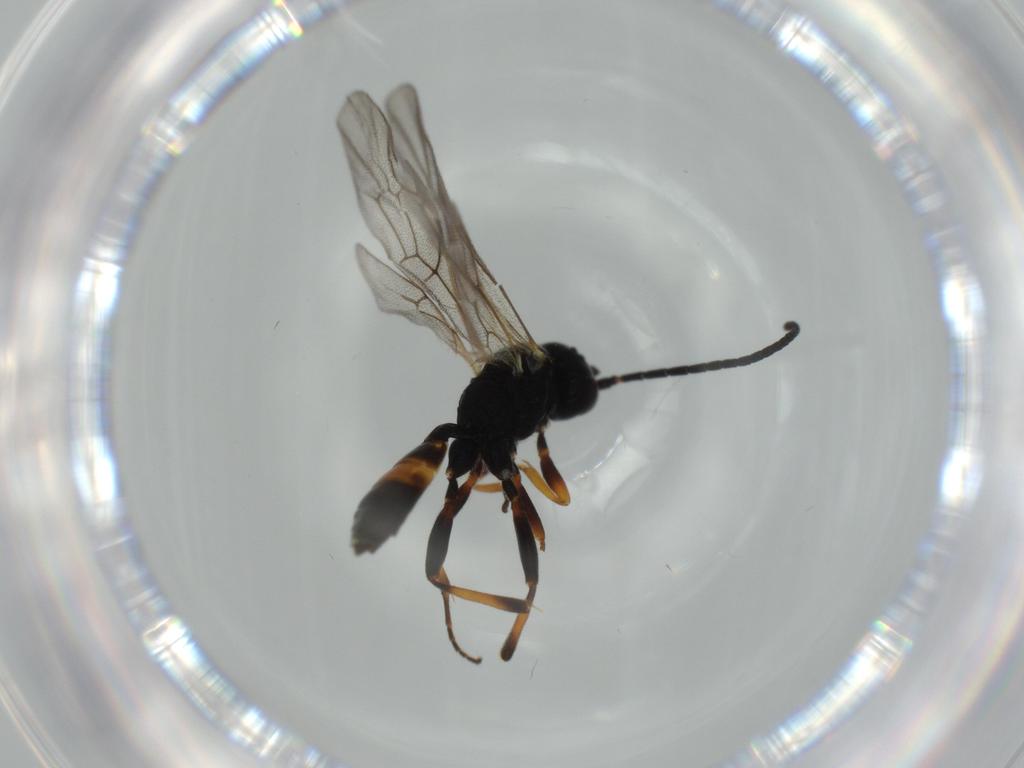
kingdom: Animalia
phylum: Arthropoda
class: Insecta
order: Hymenoptera
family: Ichneumonidae
